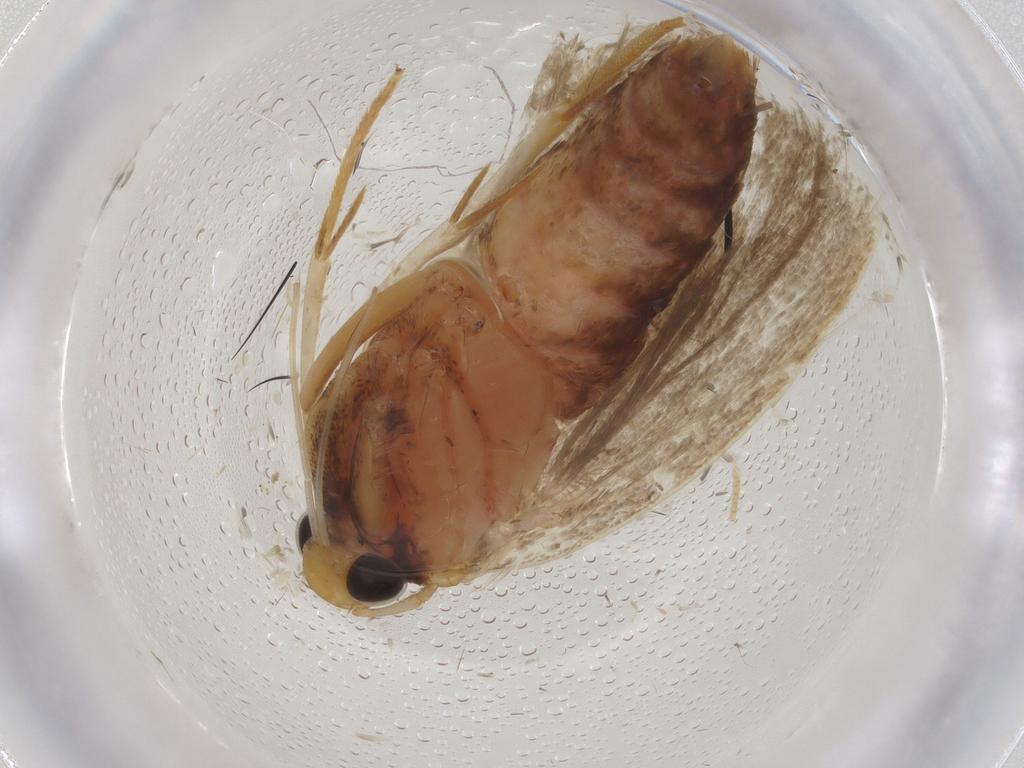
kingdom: Animalia
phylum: Arthropoda
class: Insecta
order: Lepidoptera
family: Autostichidae
